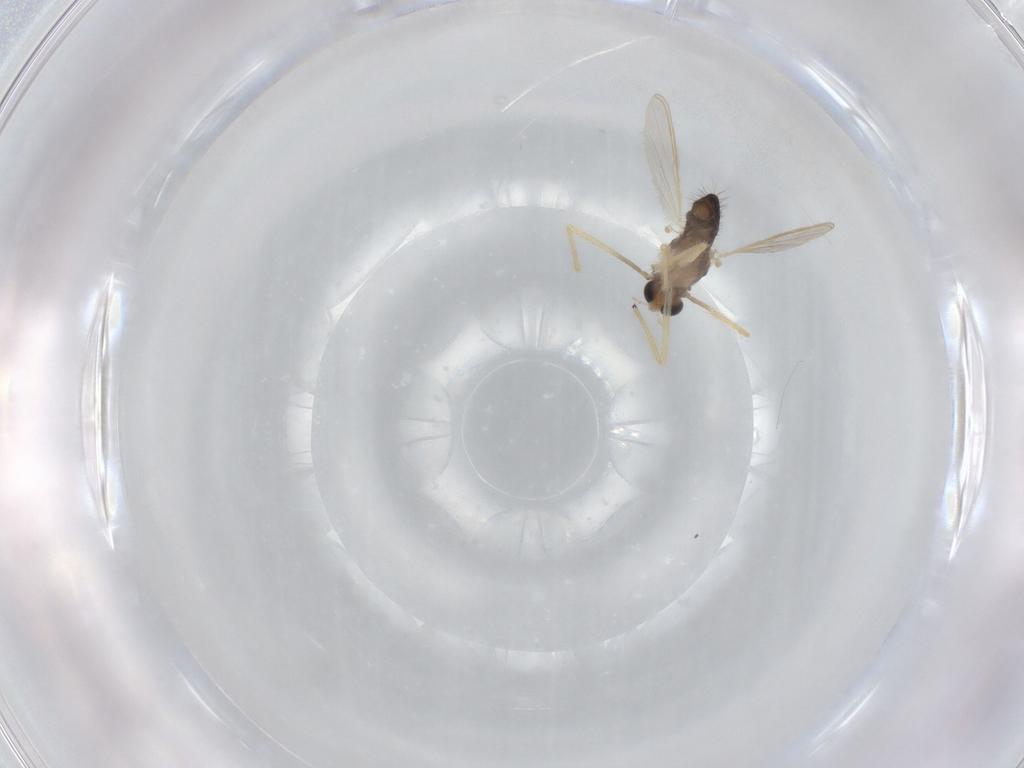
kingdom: Animalia
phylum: Arthropoda
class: Insecta
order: Diptera
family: Chironomidae
